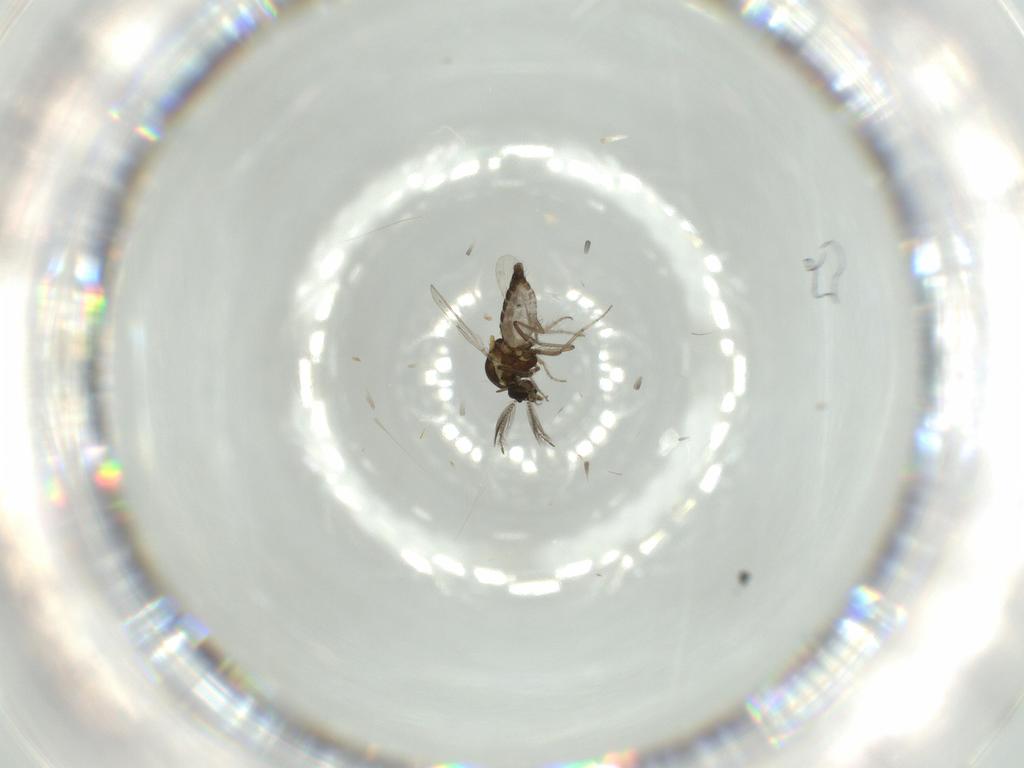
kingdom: Animalia
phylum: Arthropoda
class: Insecta
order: Diptera
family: Ceratopogonidae
